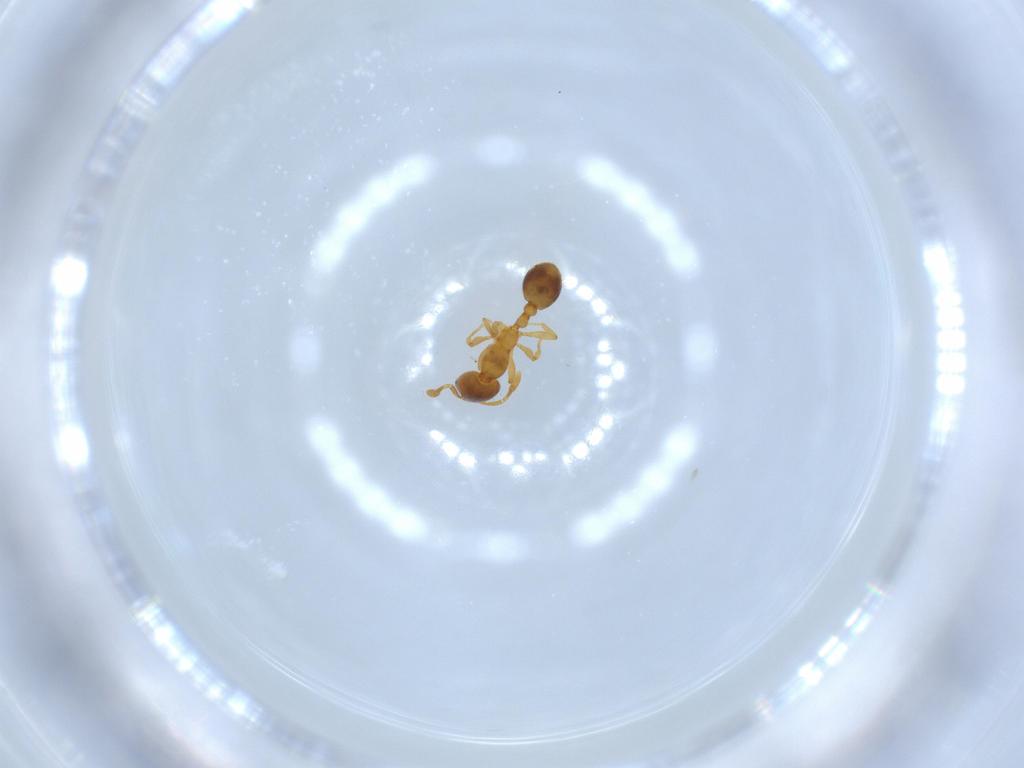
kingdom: Animalia
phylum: Arthropoda
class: Insecta
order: Hymenoptera
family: Formicidae
